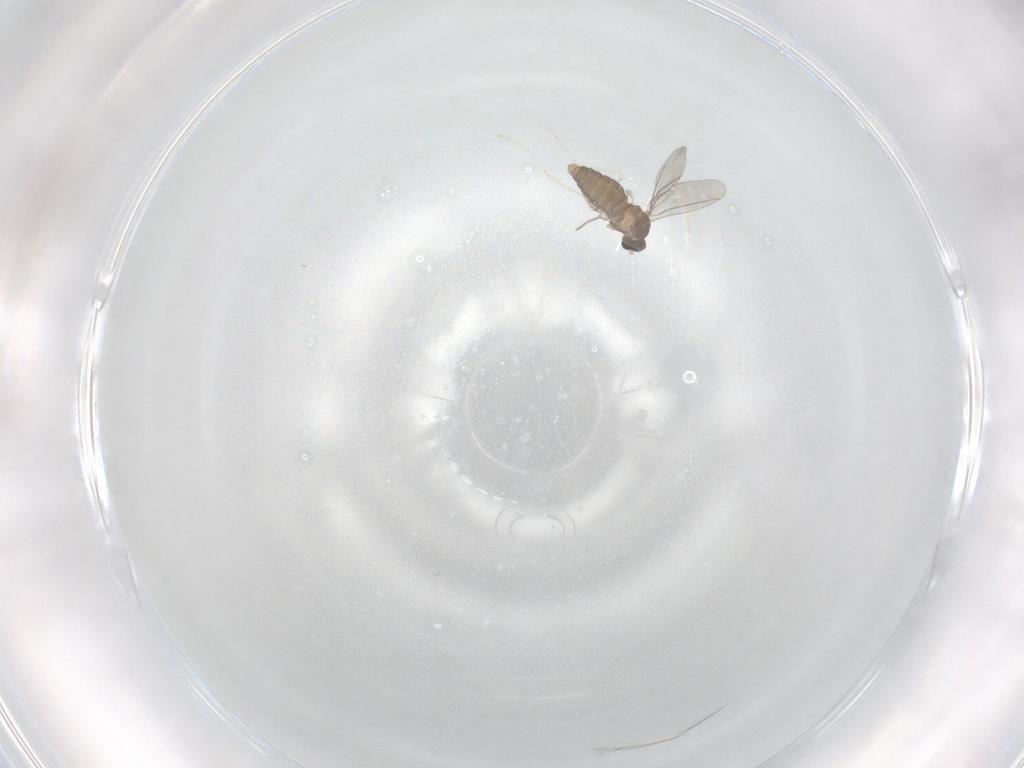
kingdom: Animalia
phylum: Arthropoda
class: Insecta
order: Diptera
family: Cecidomyiidae
